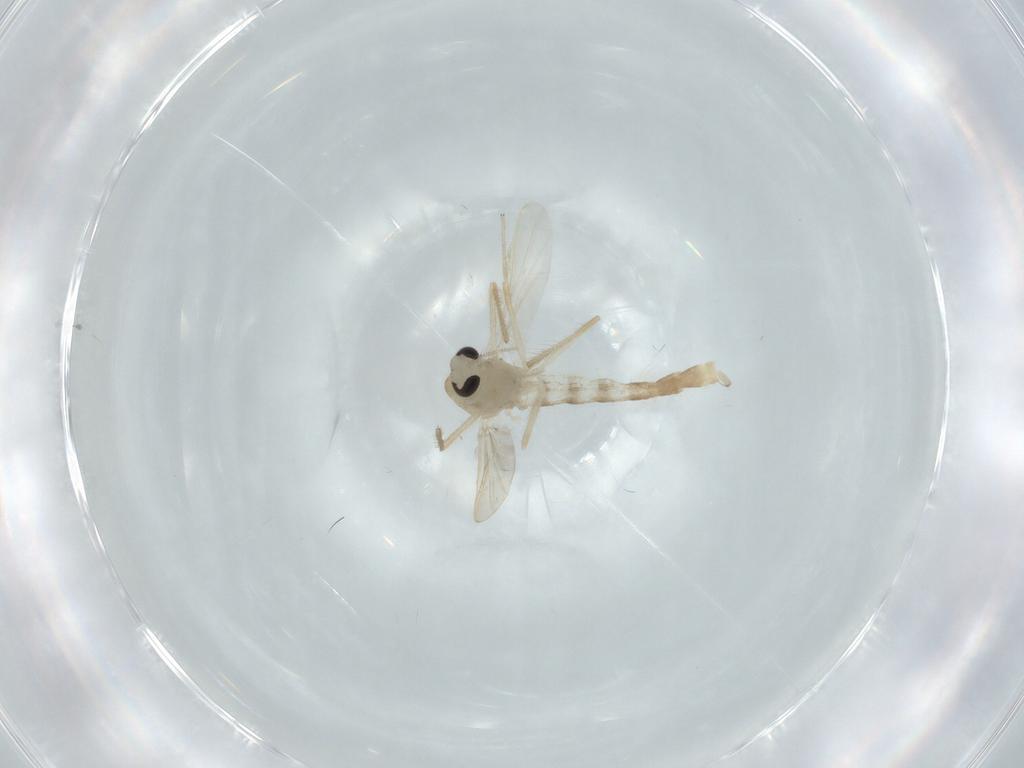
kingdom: Animalia
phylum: Arthropoda
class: Insecta
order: Diptera
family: Chironomidae
